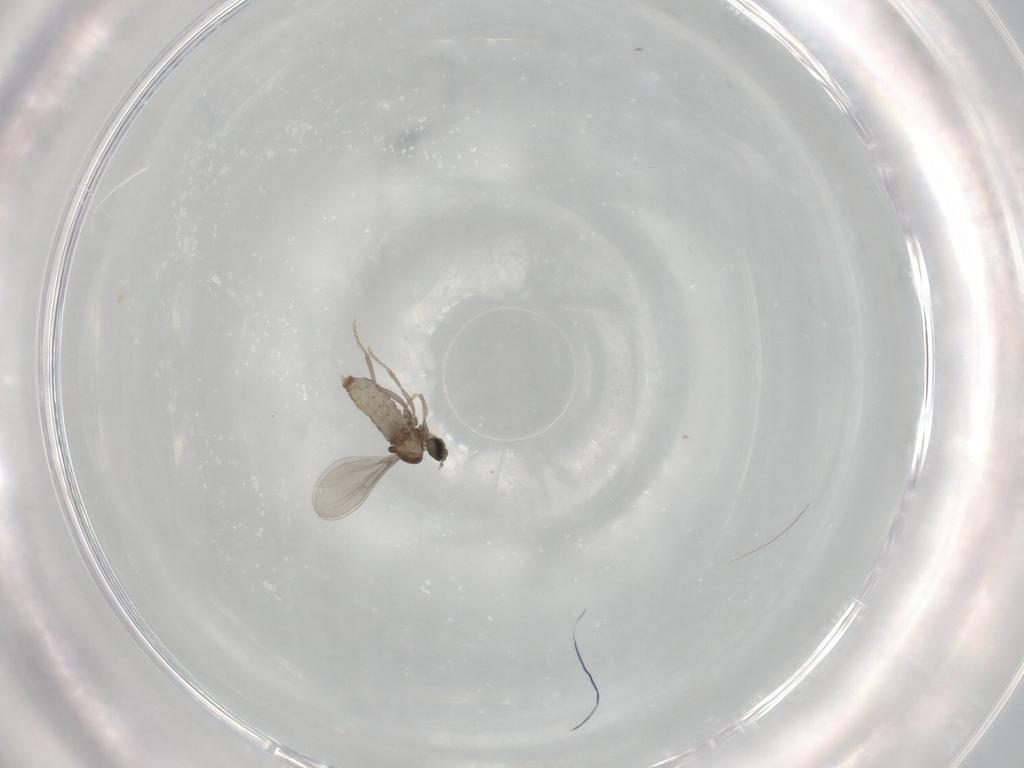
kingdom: Animalia
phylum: Arthropoda
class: Insecta
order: Diptera
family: Cecidomyiidae
